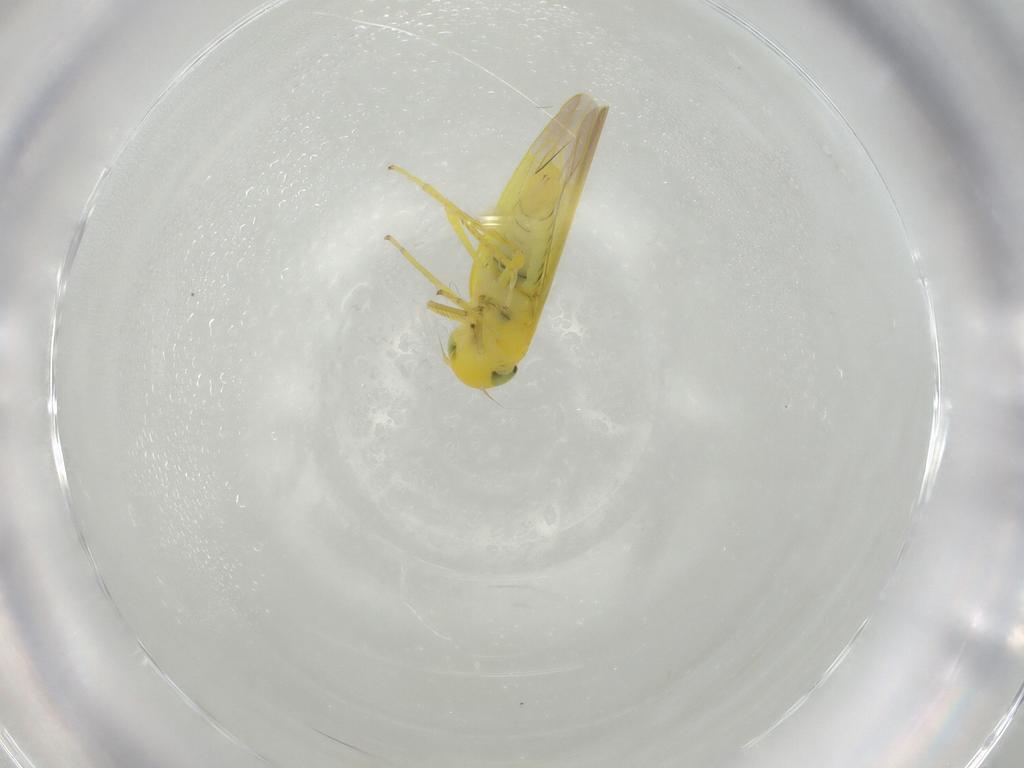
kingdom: Animalia
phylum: Arthropoda
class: Insecta
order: Hemiptera
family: Cicadellidae
